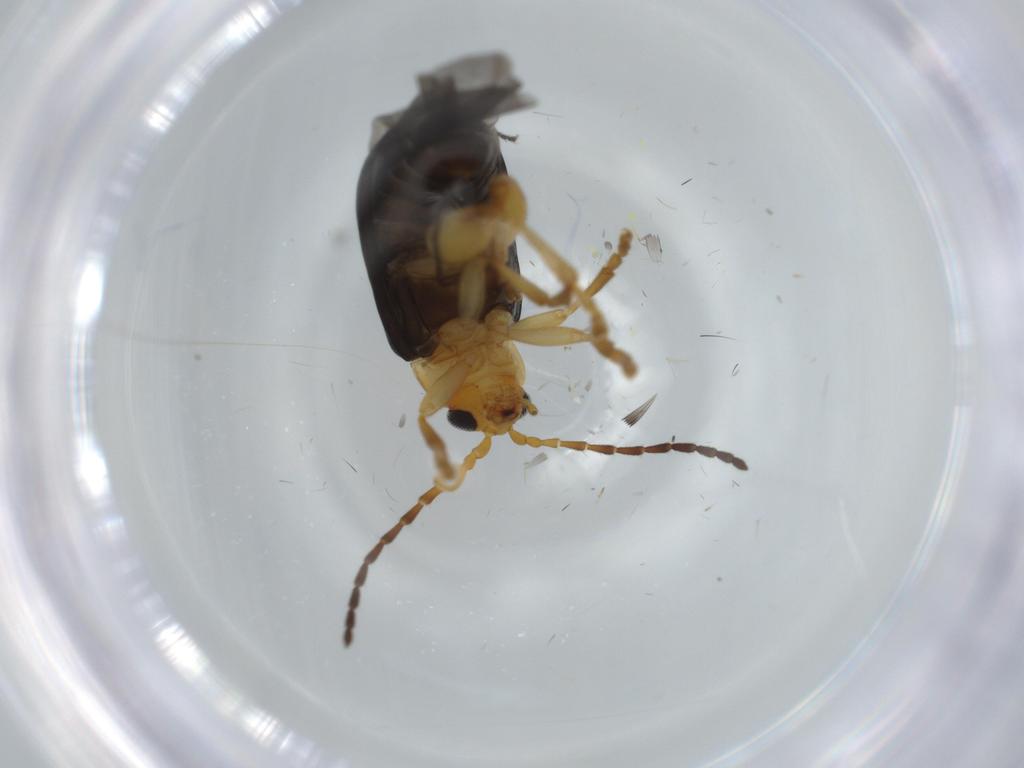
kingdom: Animalia
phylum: Arthropoda
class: Insecta
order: Coleoptera
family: Chrysomelidae
